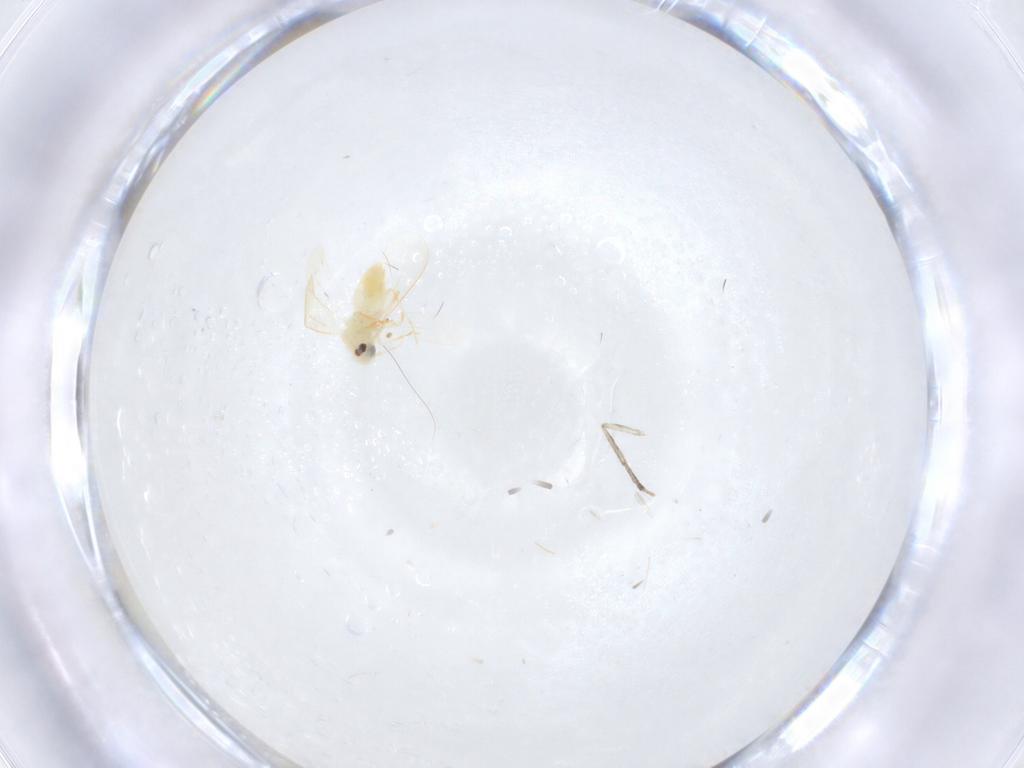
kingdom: Animalia
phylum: Arthropoda
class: Insecta
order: Hemiptera
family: Aleyrodidae
